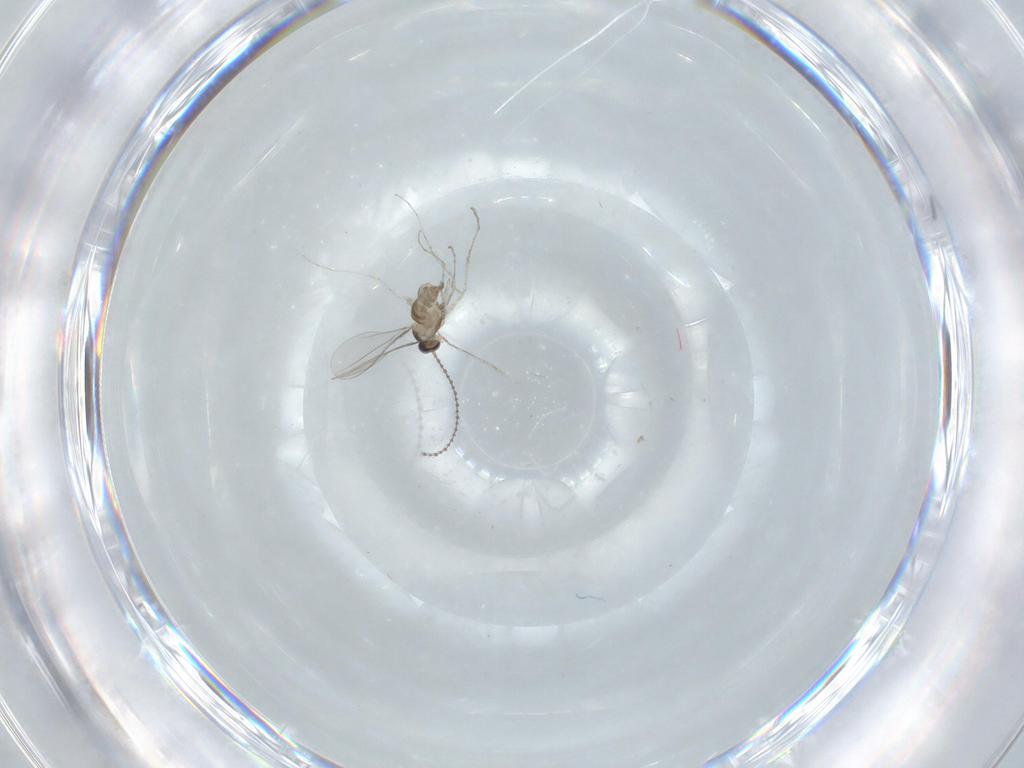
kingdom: Animalia
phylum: Arthropoda
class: Insecta
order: Diptera
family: Cecidomyiidae
